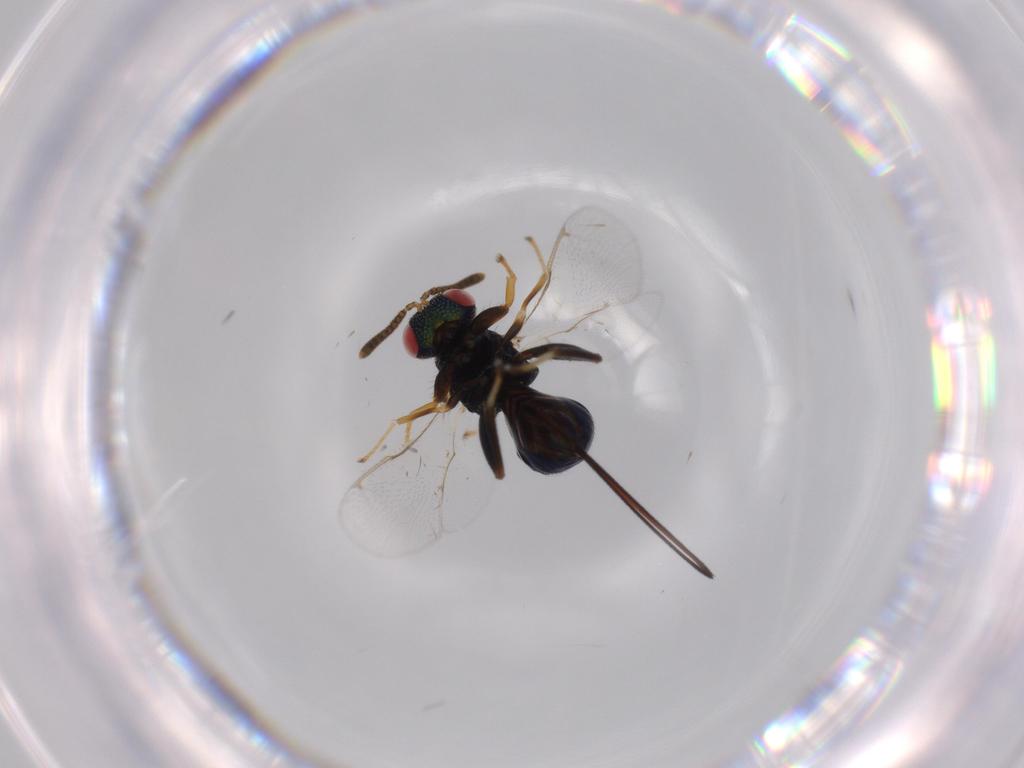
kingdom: Animalia
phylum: Arthropoda
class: Insecta
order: Hymenoptera
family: Torymidae
